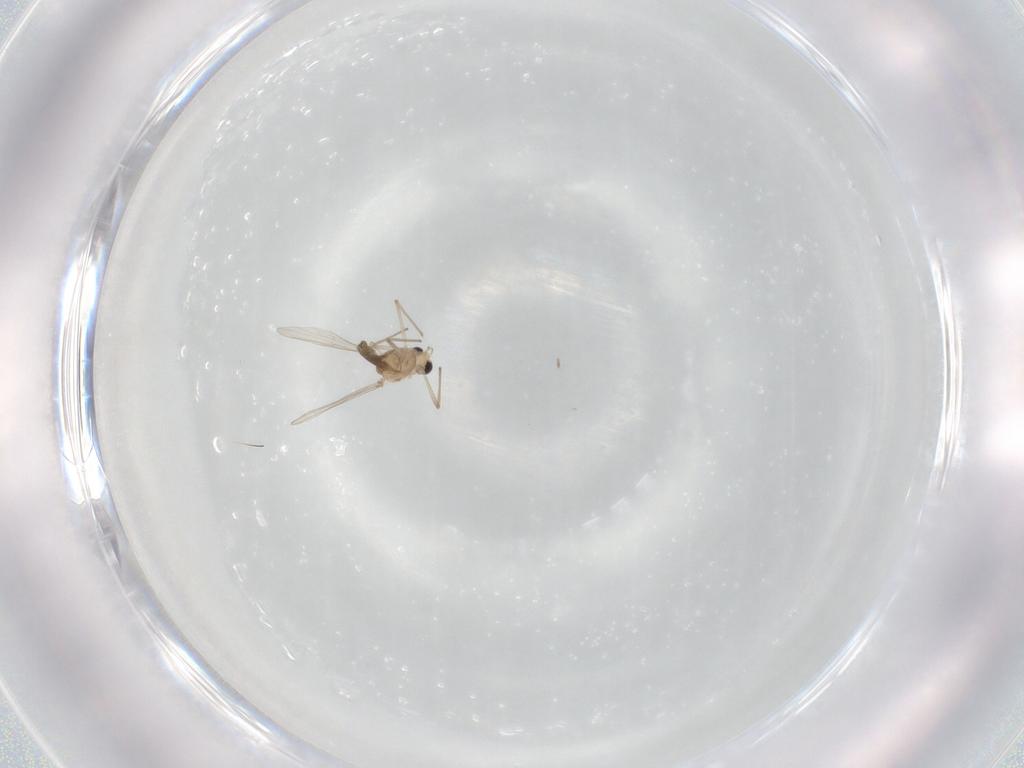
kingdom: Animalia
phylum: Arthropoda
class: Insecta
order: Diptera
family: Chironomidae
